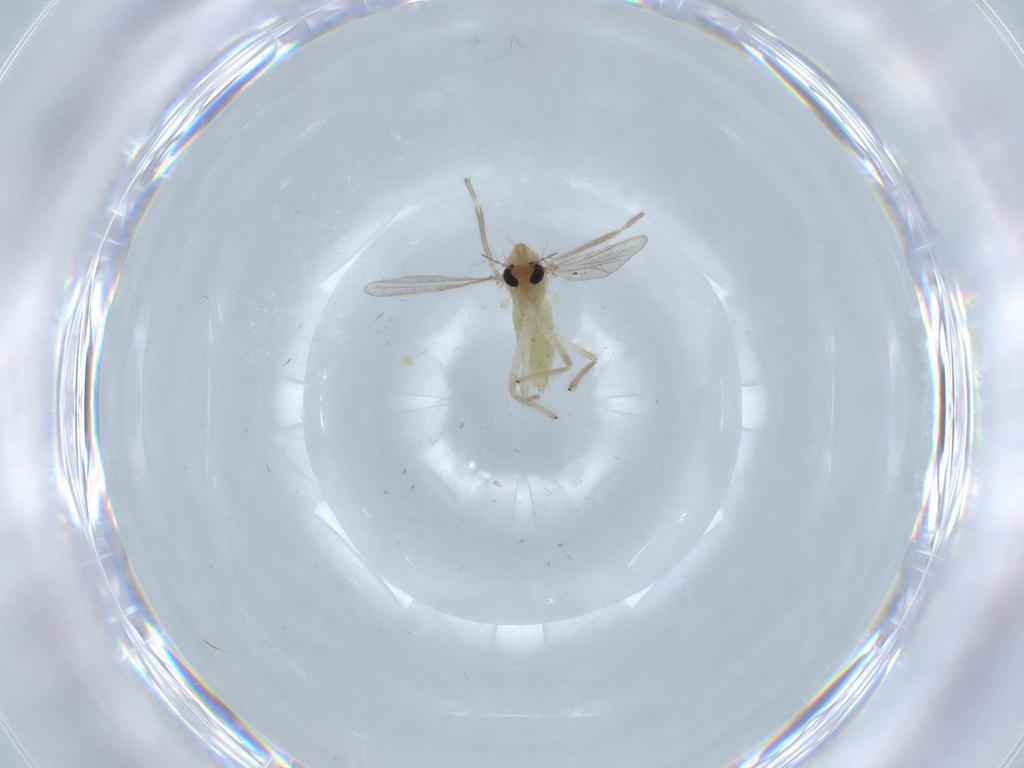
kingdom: Animalia
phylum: Arthropoda
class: Insecta
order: Diptera
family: Chironomidae
